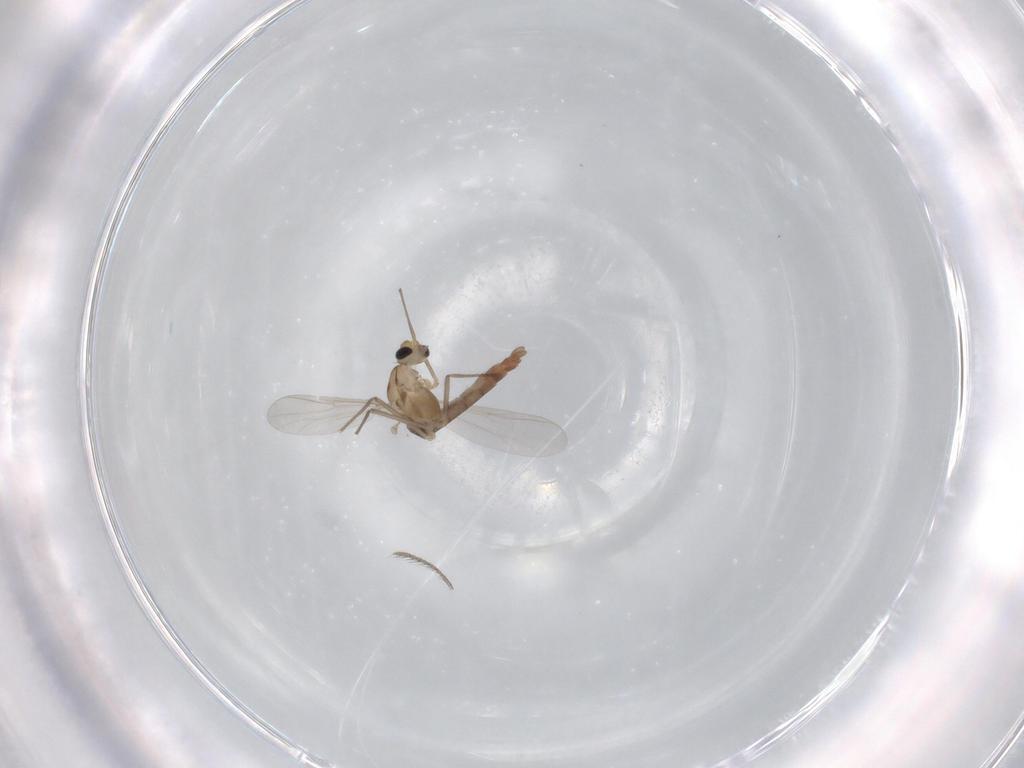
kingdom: Animalia
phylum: Arthropoda
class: Insecta
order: Diptera
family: Chironomidae
